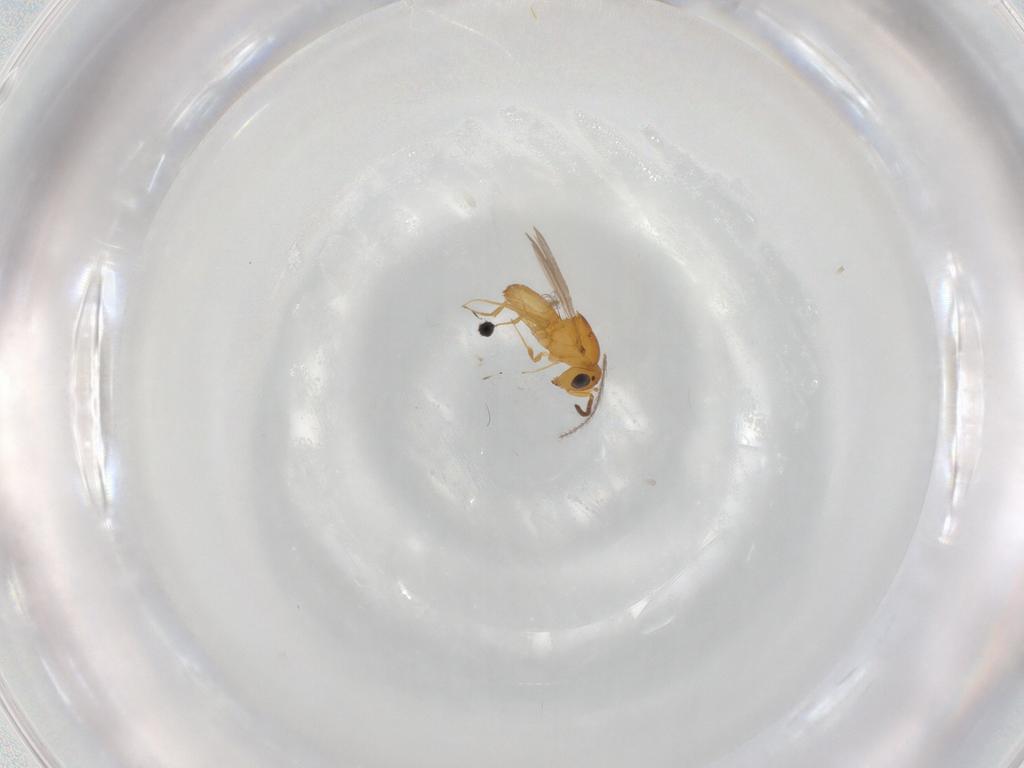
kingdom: Animalia
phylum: Arthropoda
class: Insecta
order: Hymenoptera
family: Scelionidae
